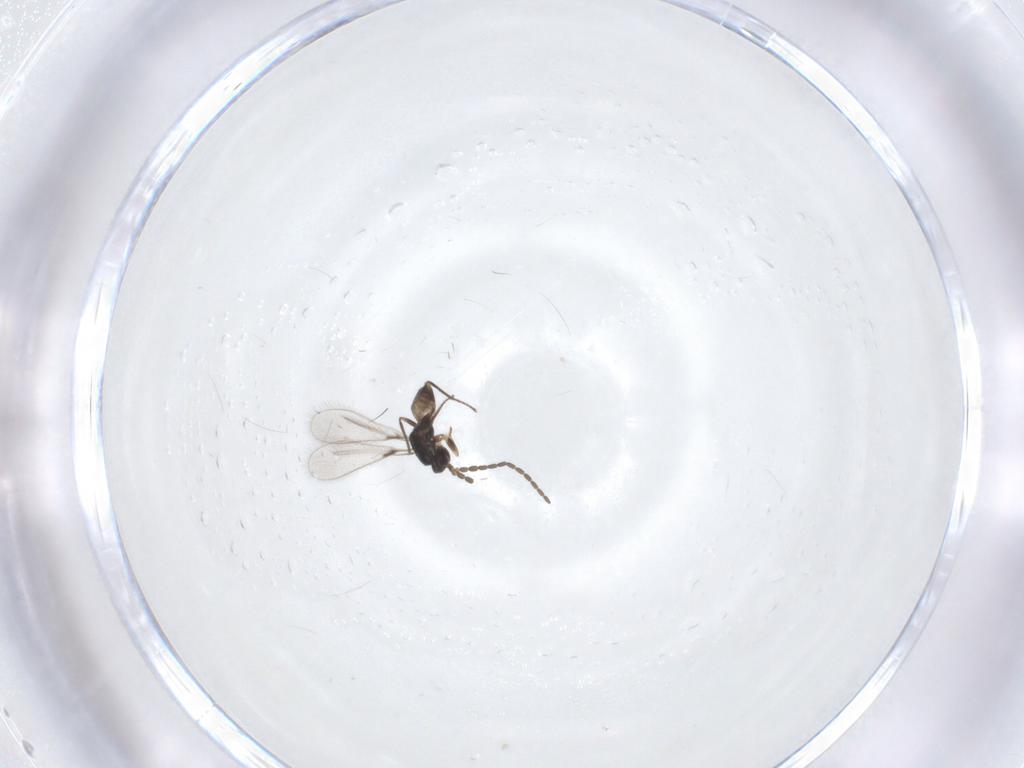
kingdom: Animalia
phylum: Arthropoda
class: Insecta
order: Hymenoptera
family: Mymaridae
